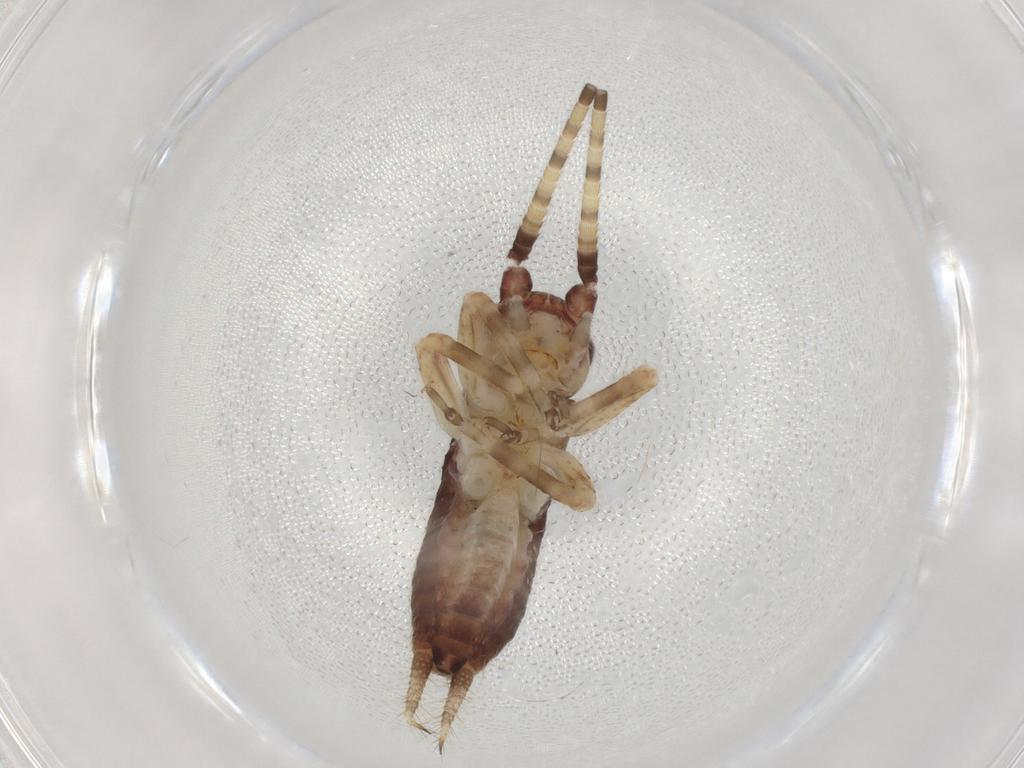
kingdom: Animalia
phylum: Arthropoda
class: Insecta
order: Orthoptera
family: Gryllidae
